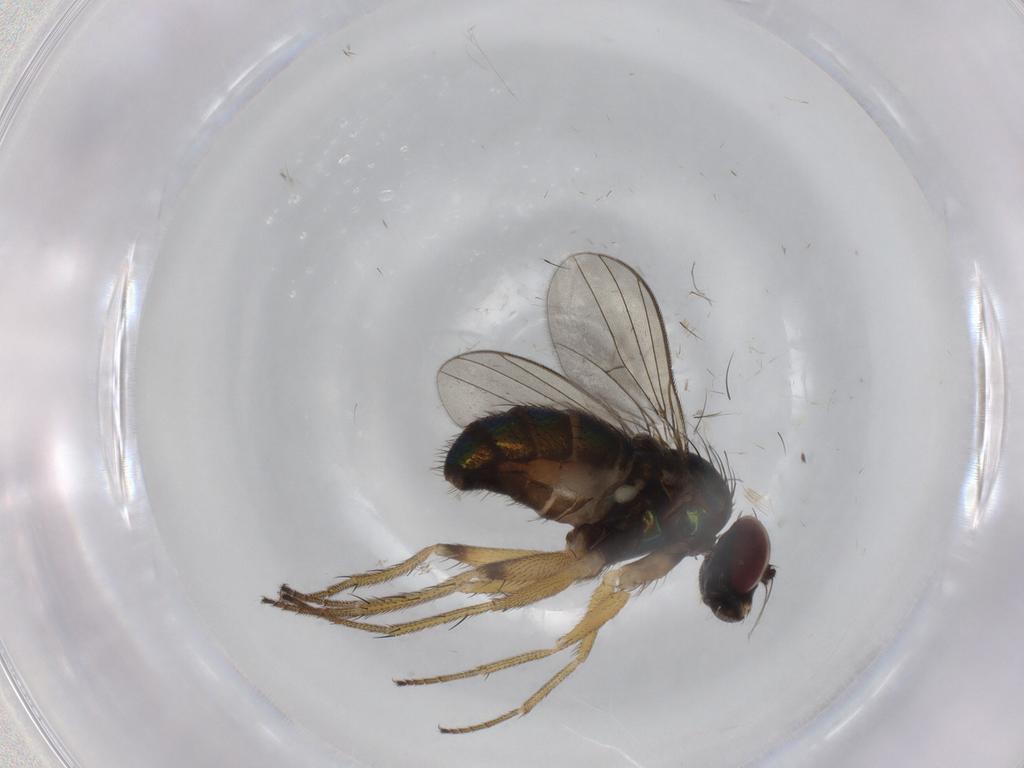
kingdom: Animalia
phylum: Arthropoda
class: Insecta
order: Diptera
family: Dolichopodidae
